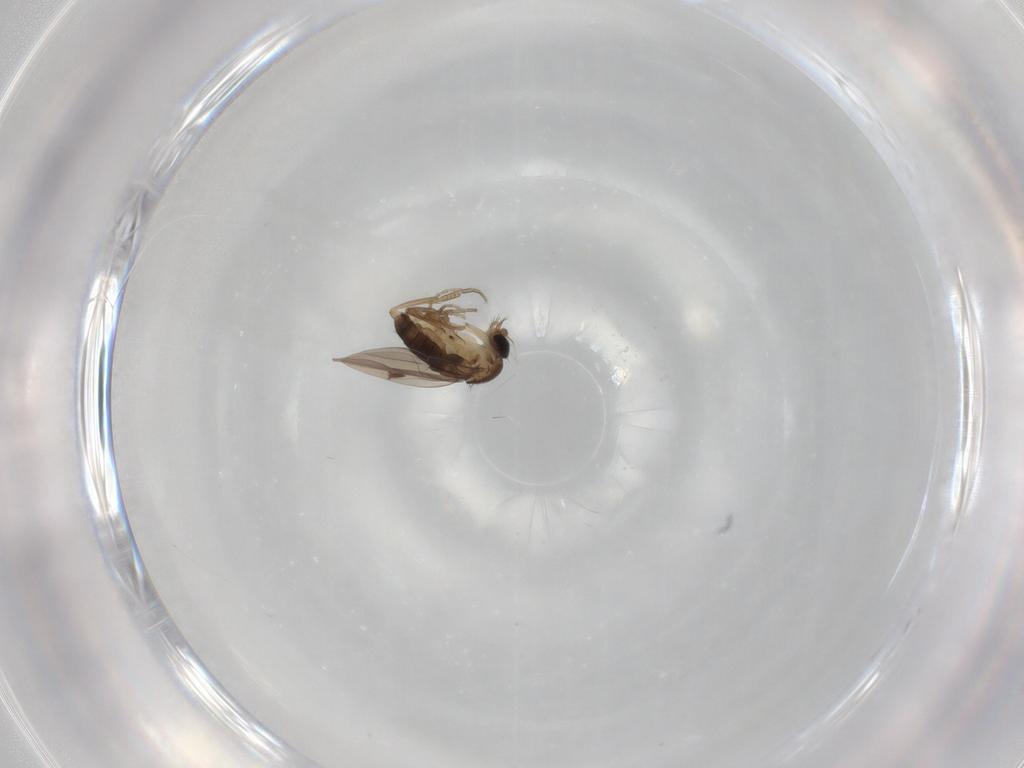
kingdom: Animalia
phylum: Arthropoda
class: Insecta
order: Diptera
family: Phoridae
